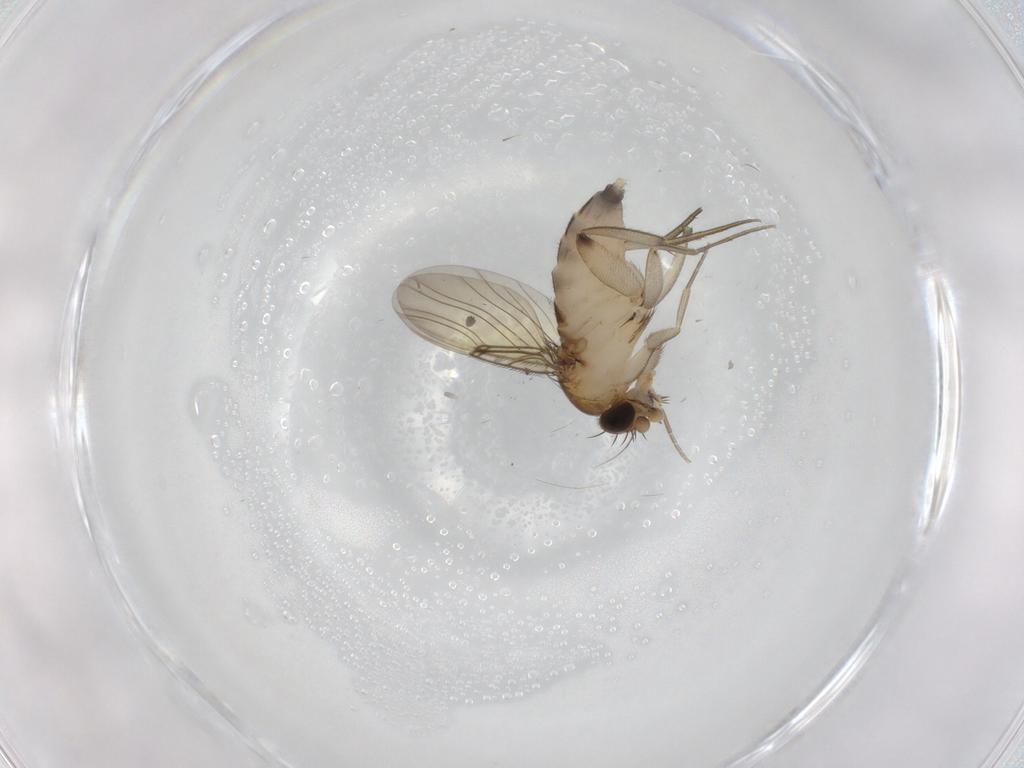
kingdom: Animalia
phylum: Arthropoda
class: Insecta
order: Diptera
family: Phoridae
